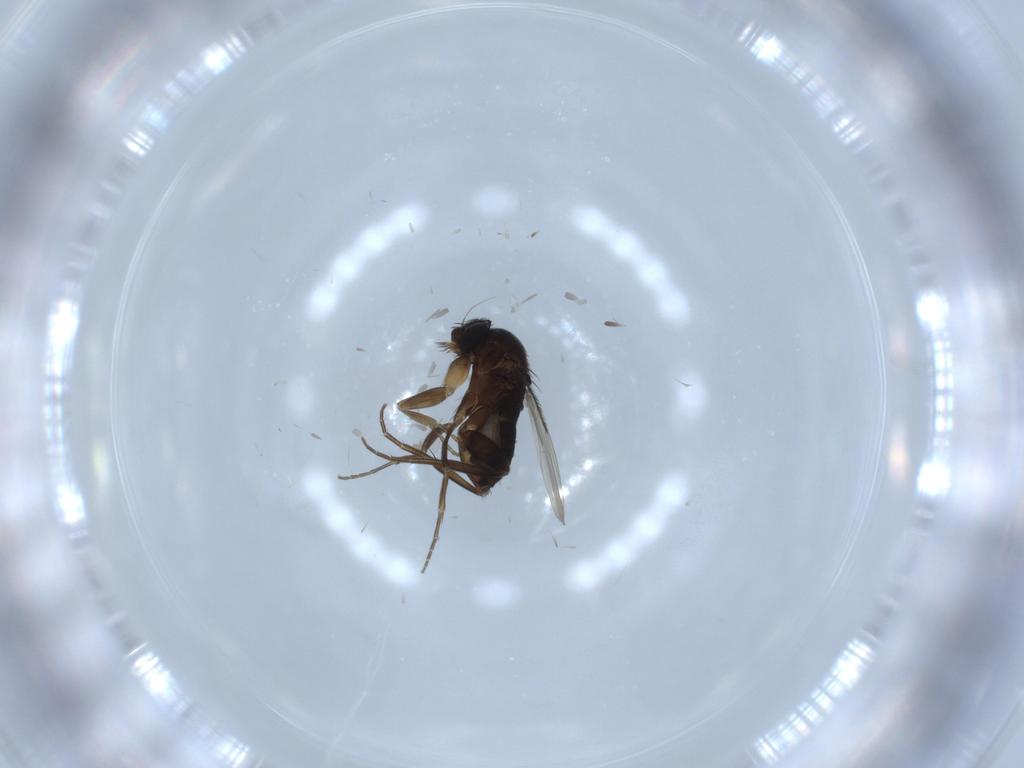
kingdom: Animalia
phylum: Arthropoda
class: Insecta
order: Diptera
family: Phoridae
